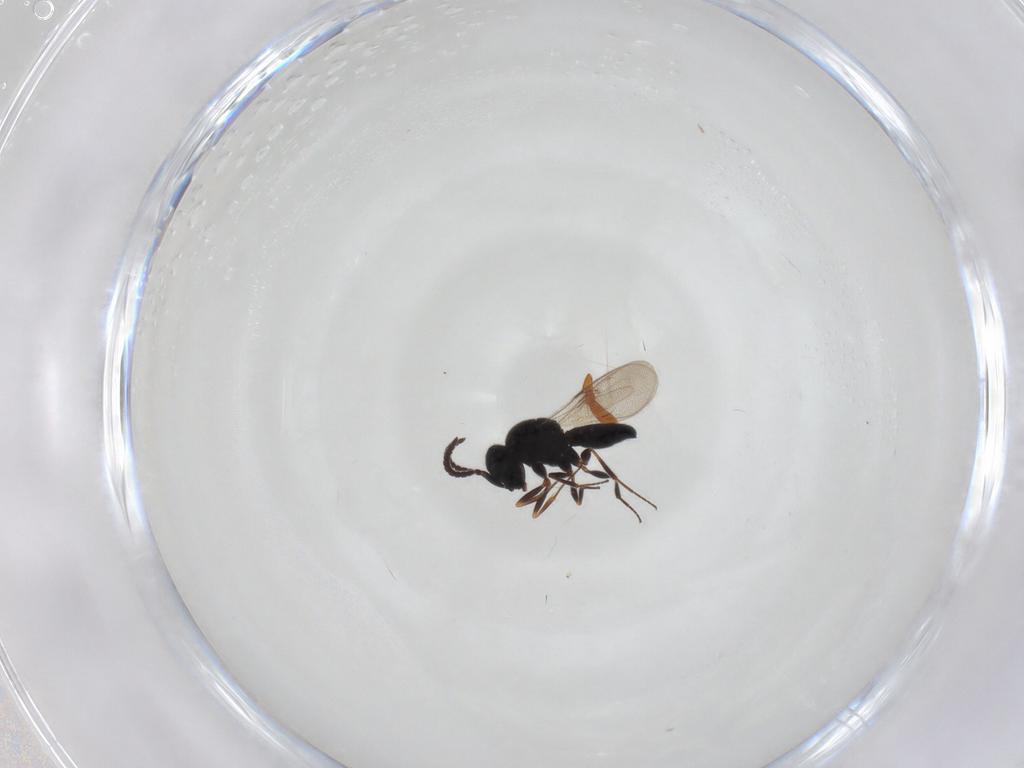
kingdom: Animalia
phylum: Arthropoda
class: Insecta
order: Hymenoptera
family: Scelionidae
